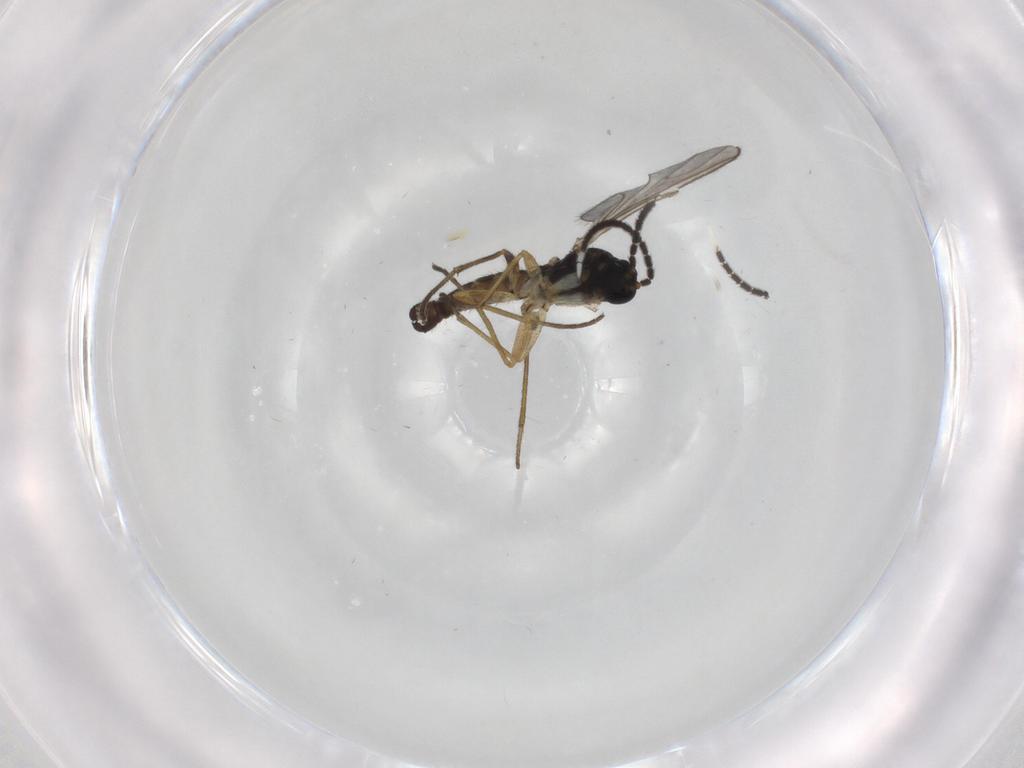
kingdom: Animalia
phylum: Arthropoda
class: Insecta
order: Diptera
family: Sciaridae
